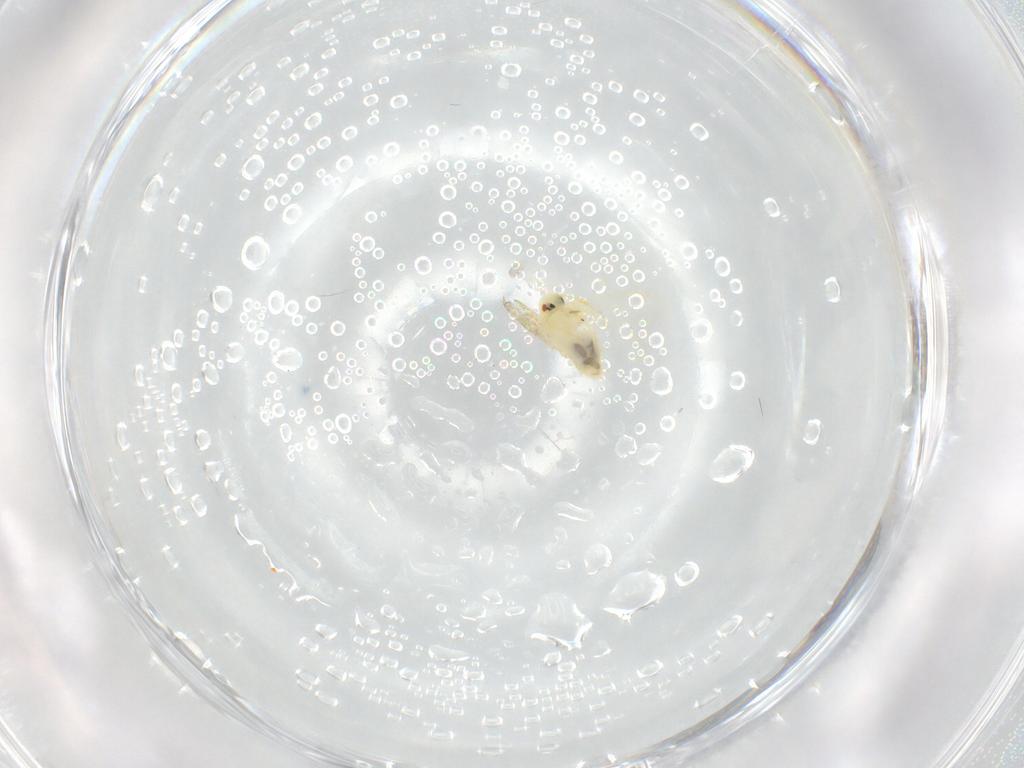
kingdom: Animalia
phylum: Arthropoda
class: Insecta
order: Hemiptera
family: Aleyrodidae
